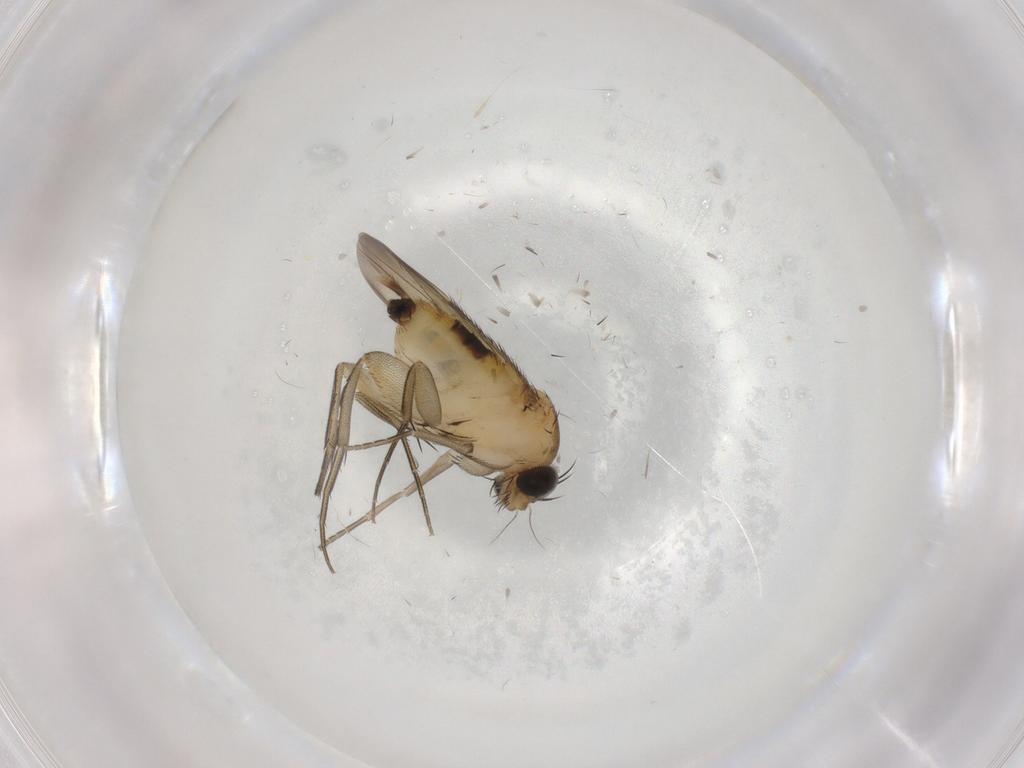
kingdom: Animalia
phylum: Arthropoda
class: Insecta
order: Diptera
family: Phoridae
